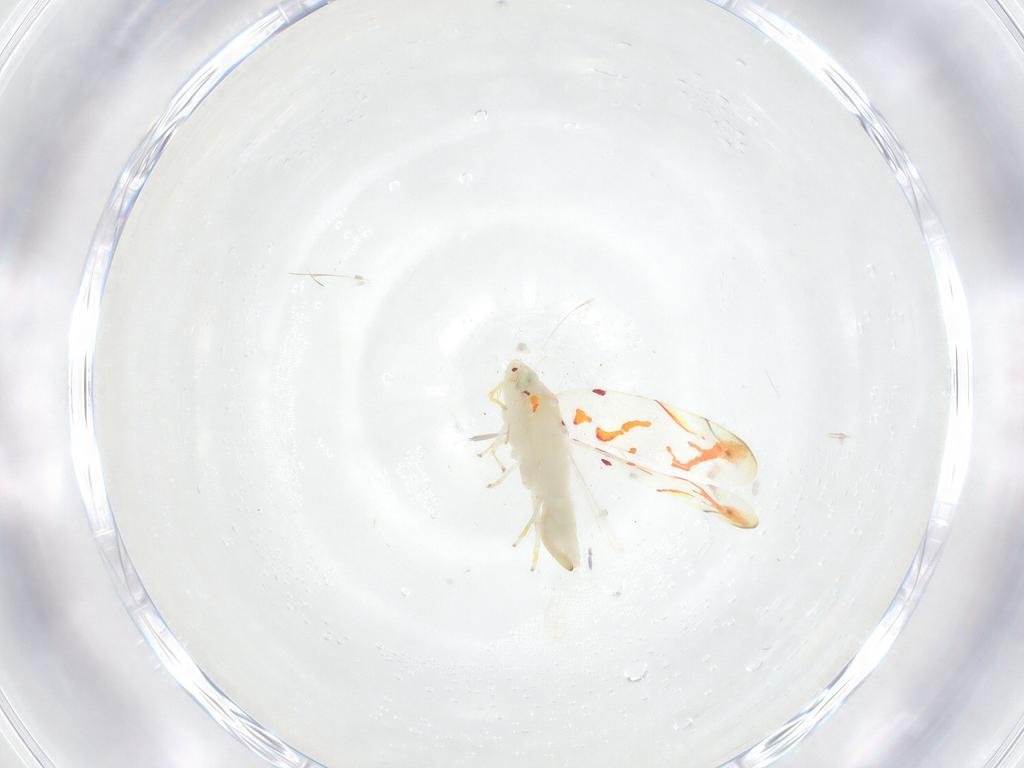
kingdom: Animalia
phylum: Arthropoda
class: Insecta
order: Hemiptera
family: Cicadellidae
